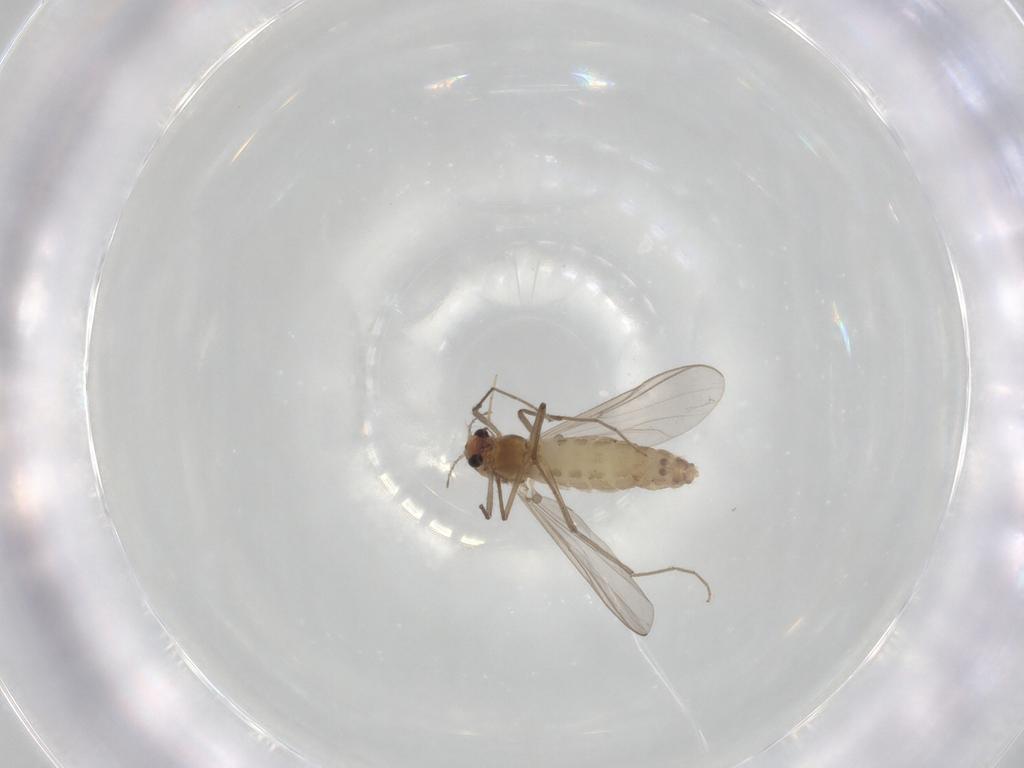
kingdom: Animalia
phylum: Arthropoda
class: Insecta
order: Diptera
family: Chironomidae
